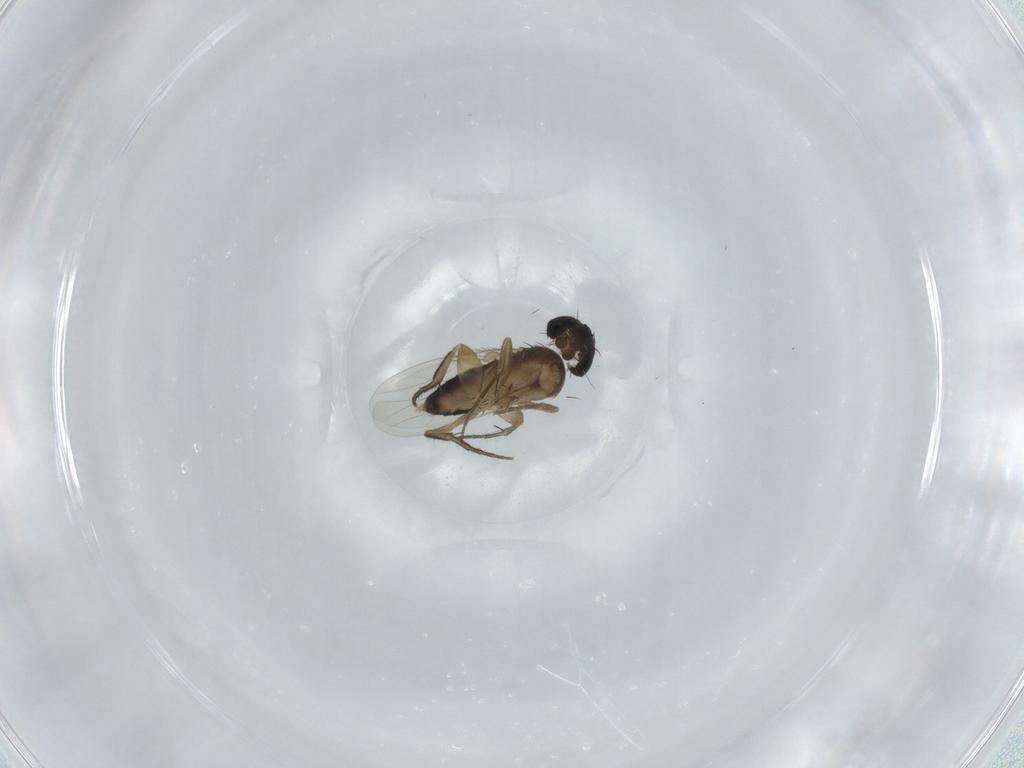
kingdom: Animalia
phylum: Arthropoda
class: Insecta
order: Diptera
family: Phoridae
